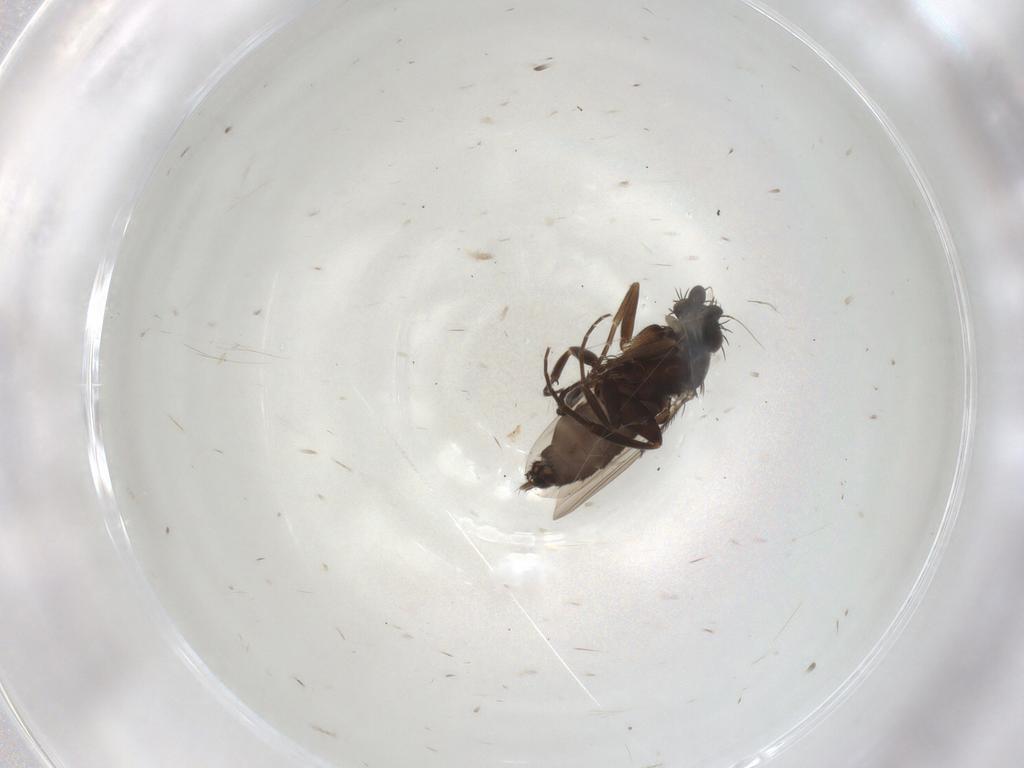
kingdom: Animalia
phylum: Arthropoda
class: Insecta
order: Diptera
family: Phoridae
